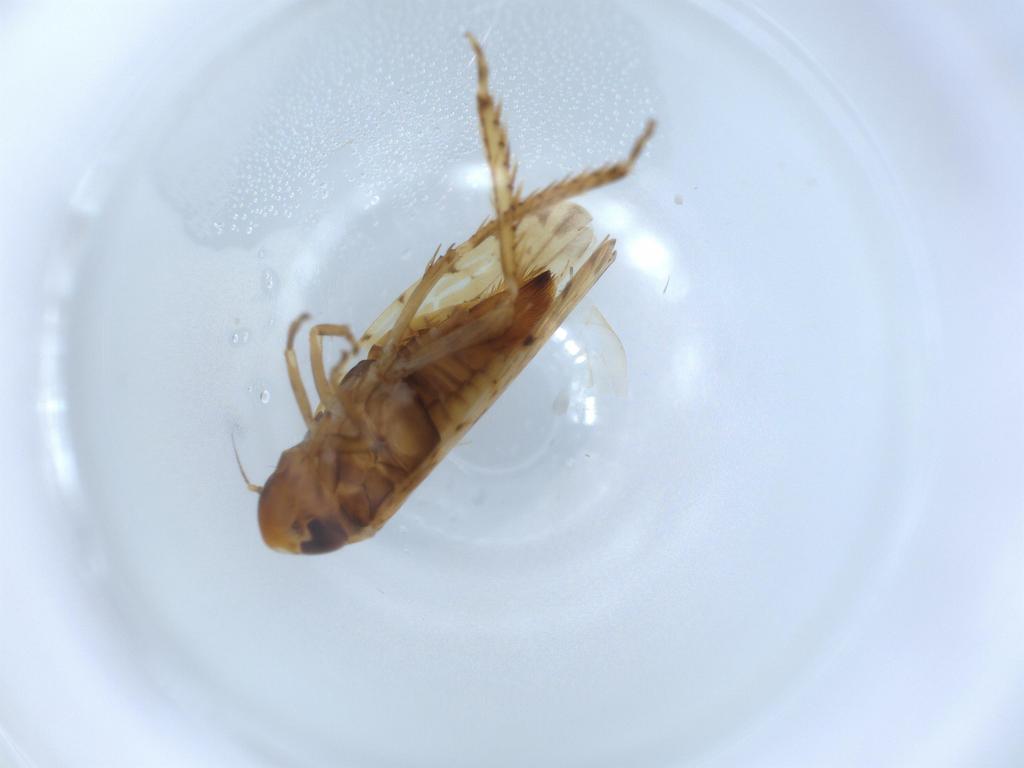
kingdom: Animalia
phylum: Arthropoda
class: Insecta
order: Hemiptera
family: Cicadellidae
